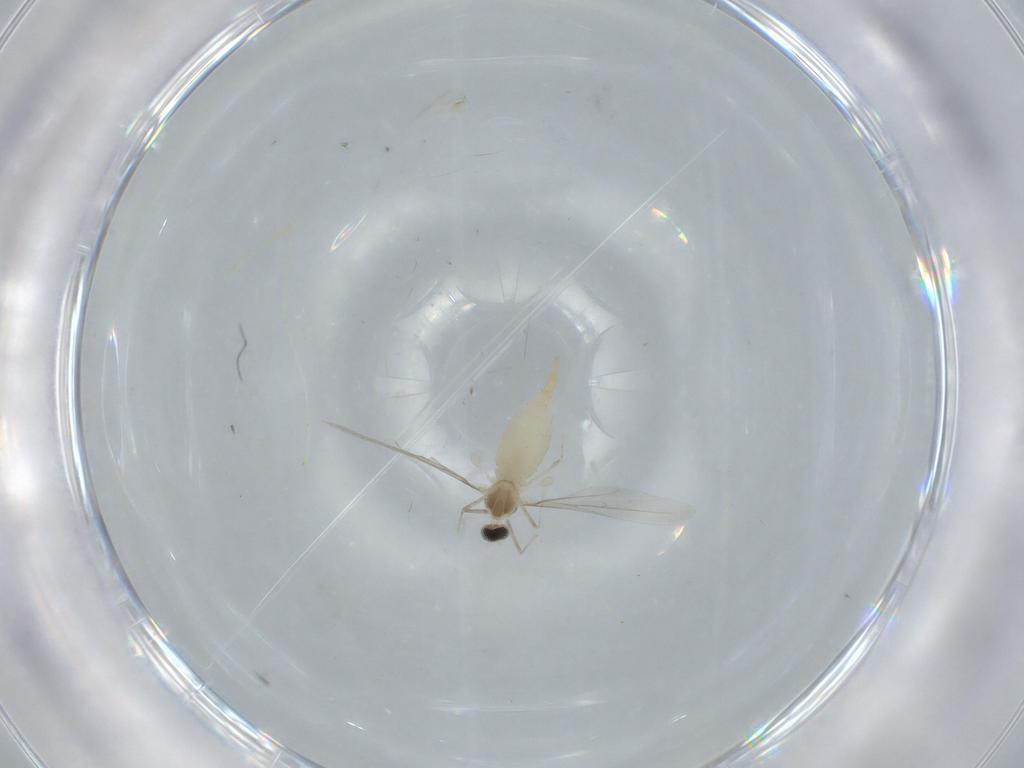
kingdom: Animalia
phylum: Arthropoda
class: Insecta
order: Diptera
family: Cecidomyiidae
